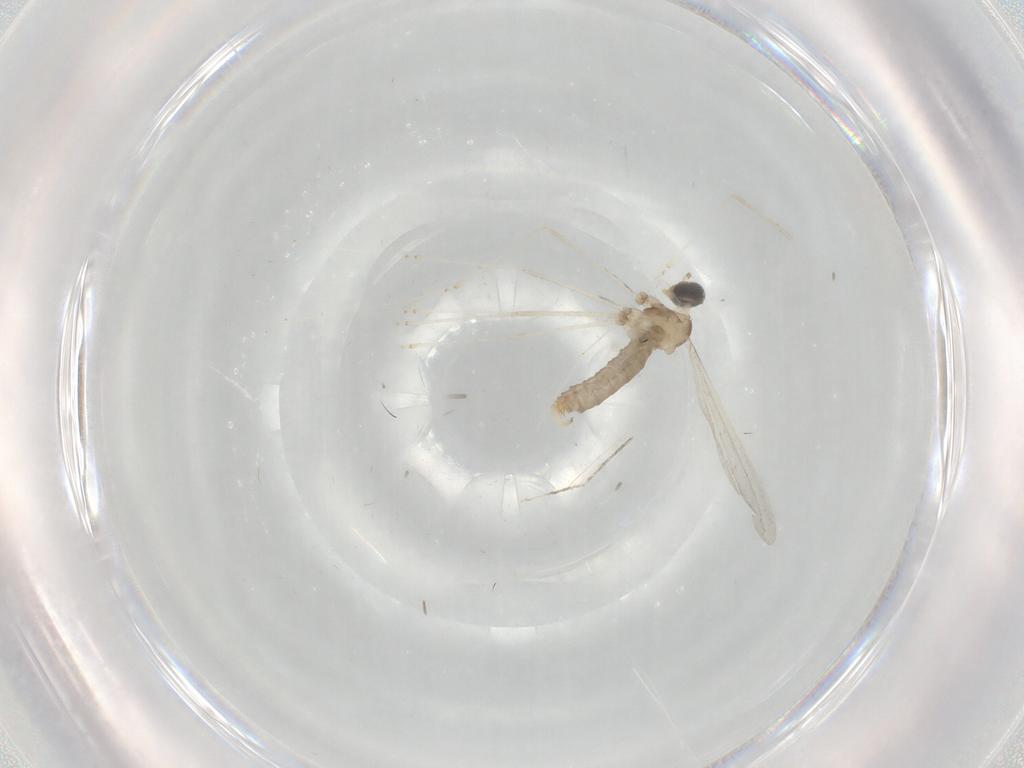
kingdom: Animalia
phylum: Arthropoda
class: Insecta
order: Diptera
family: Cecidomyiidae
